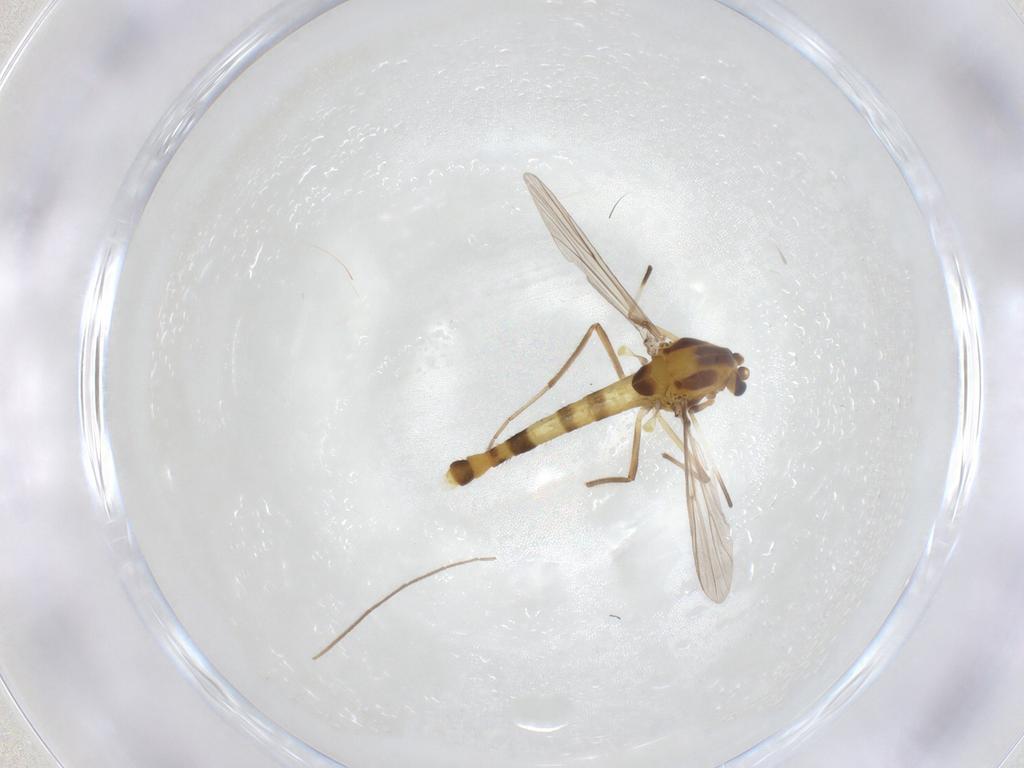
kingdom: Animalia
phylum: Arthropoda
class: Insecta
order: Diptera
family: Chironomidae
